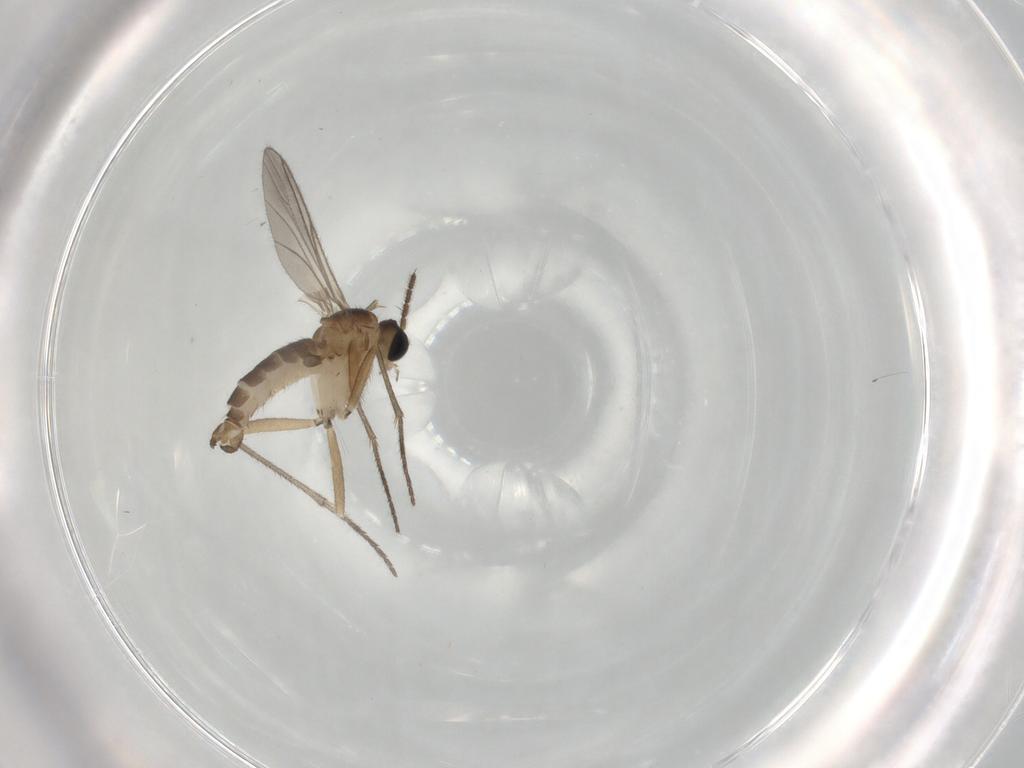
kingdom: Animalia
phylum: Arthropoda
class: Insecta
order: Diptera
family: Sciaridae
